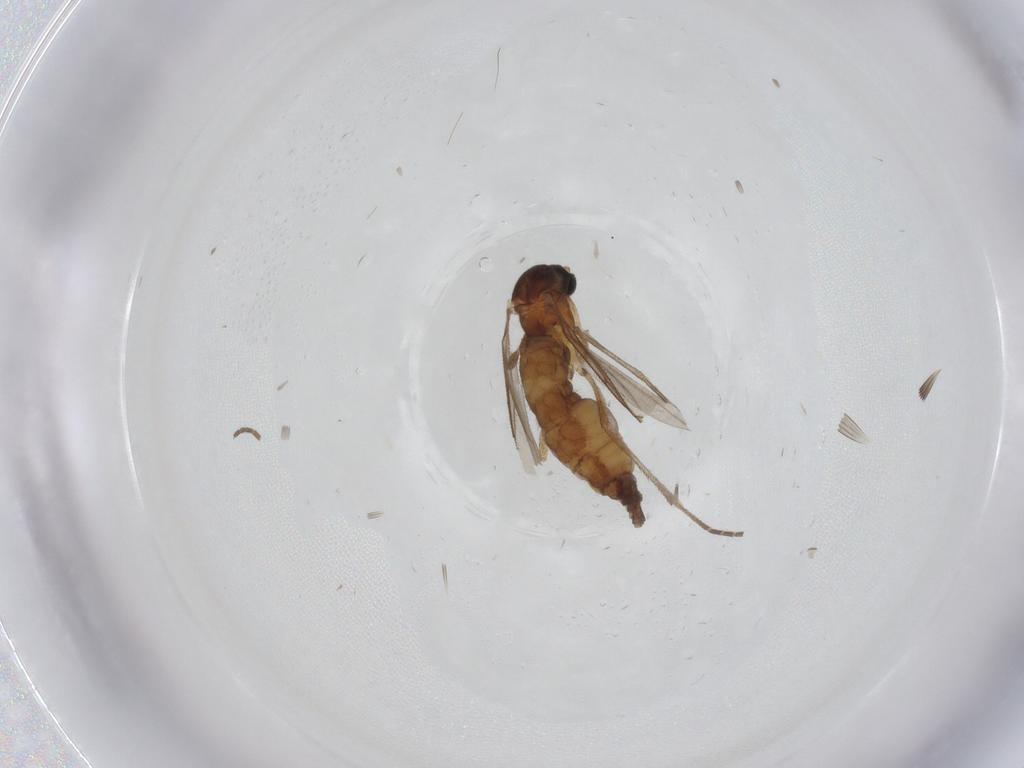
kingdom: Animalia
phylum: Arthropoda
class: Insecta
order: Diptera
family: Sciaridae
